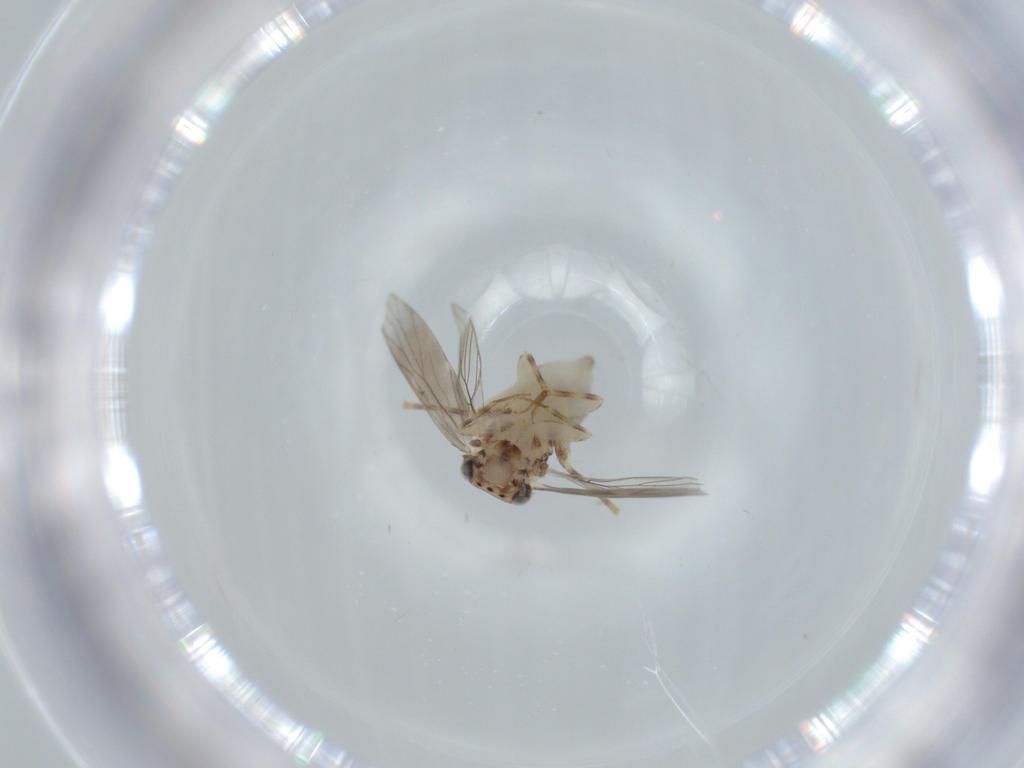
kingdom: Animalia
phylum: Arthropoda
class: Insecta
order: Psocodea
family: Lepidopsocidae
